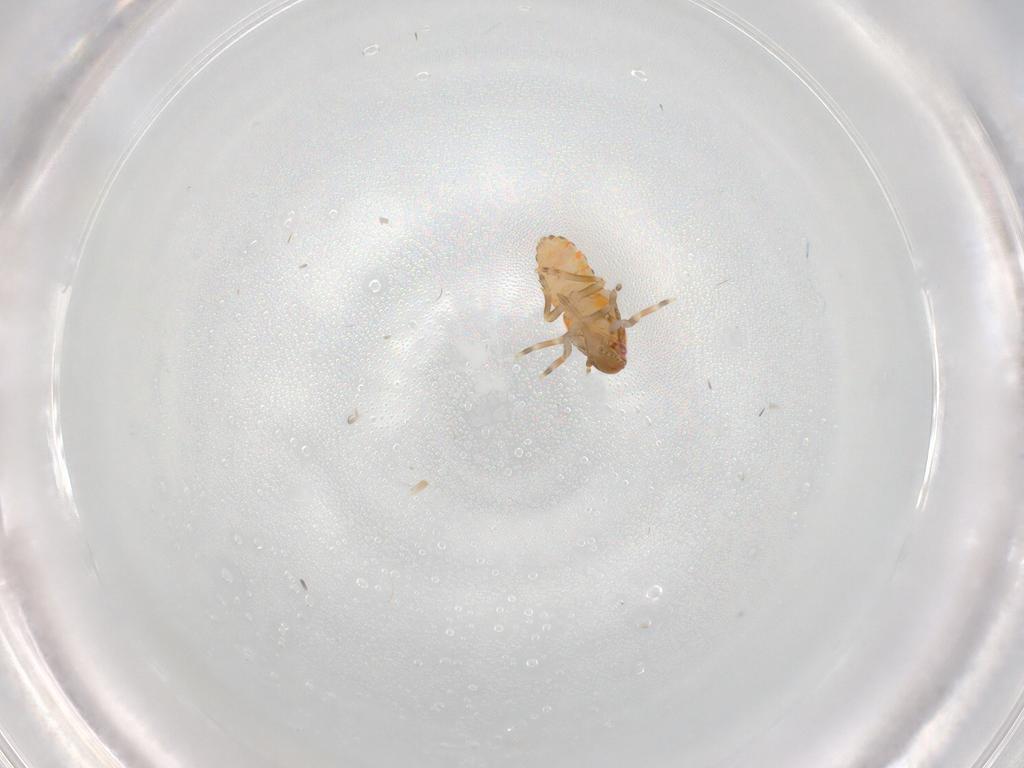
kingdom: Animalia
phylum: Arthropoda
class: Insecta
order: Hemiptera
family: Flatidae
